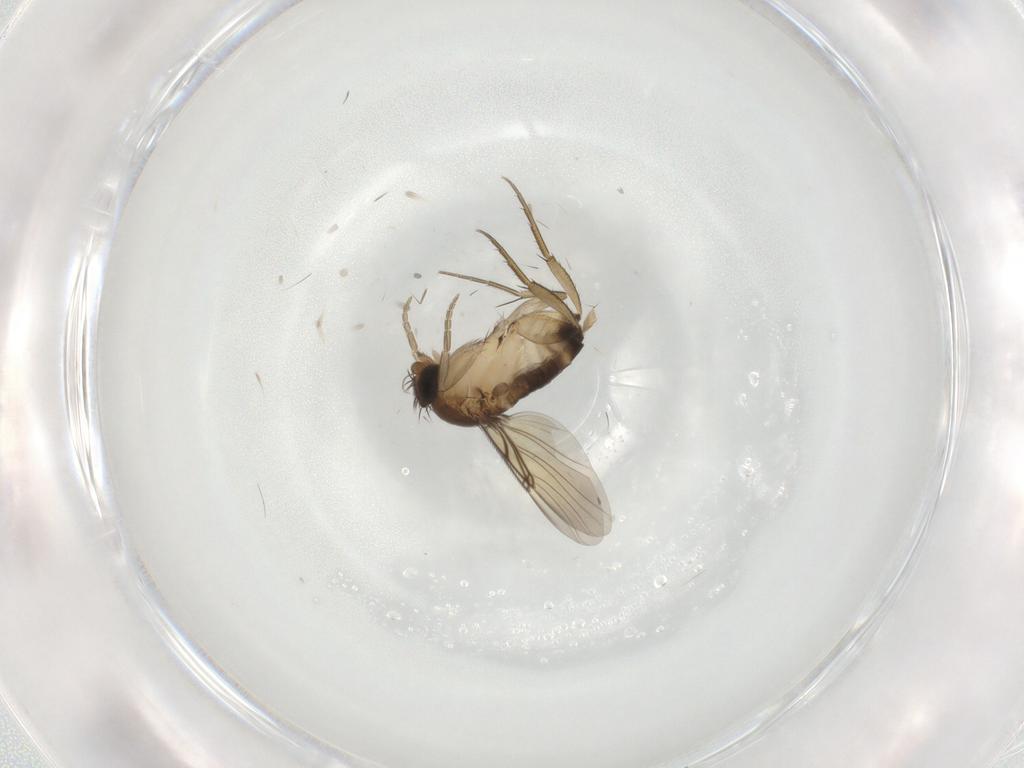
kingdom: Animalia
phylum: Arthropoda
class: Insecta
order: Diptera
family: Phoridae
